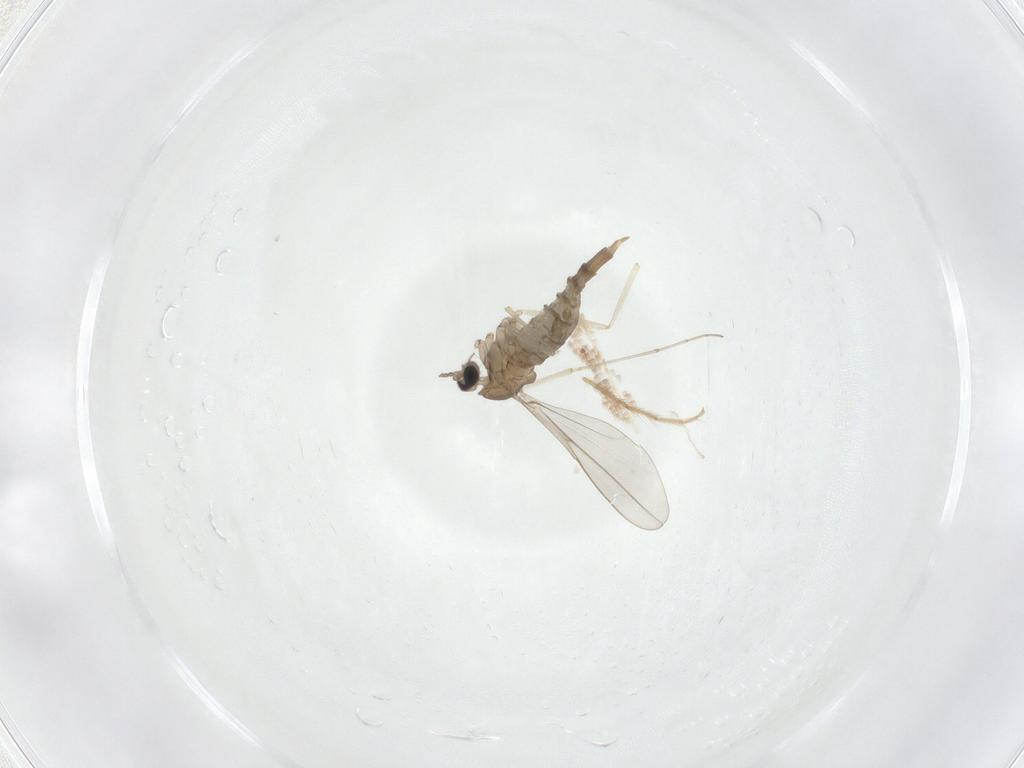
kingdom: Animalia
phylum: Arthropoda
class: Insecta
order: Diptera
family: Cecidomyiidae
